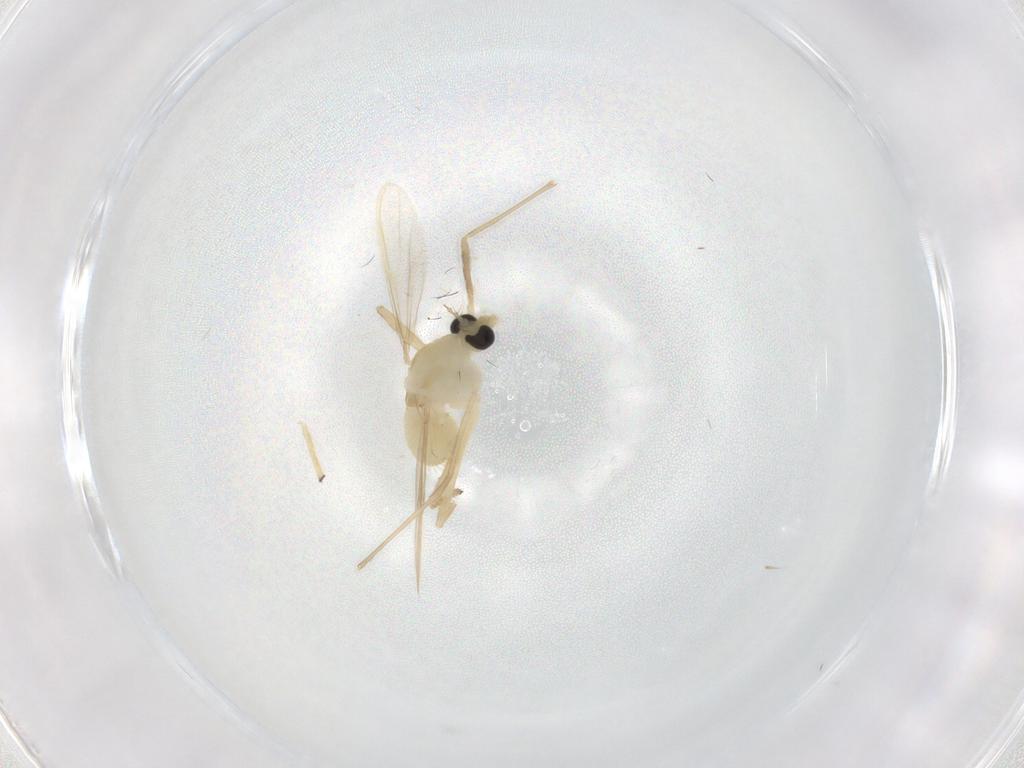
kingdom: Animalia
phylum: Arthropoda
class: Insecta
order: Diptera
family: Chironomidae
